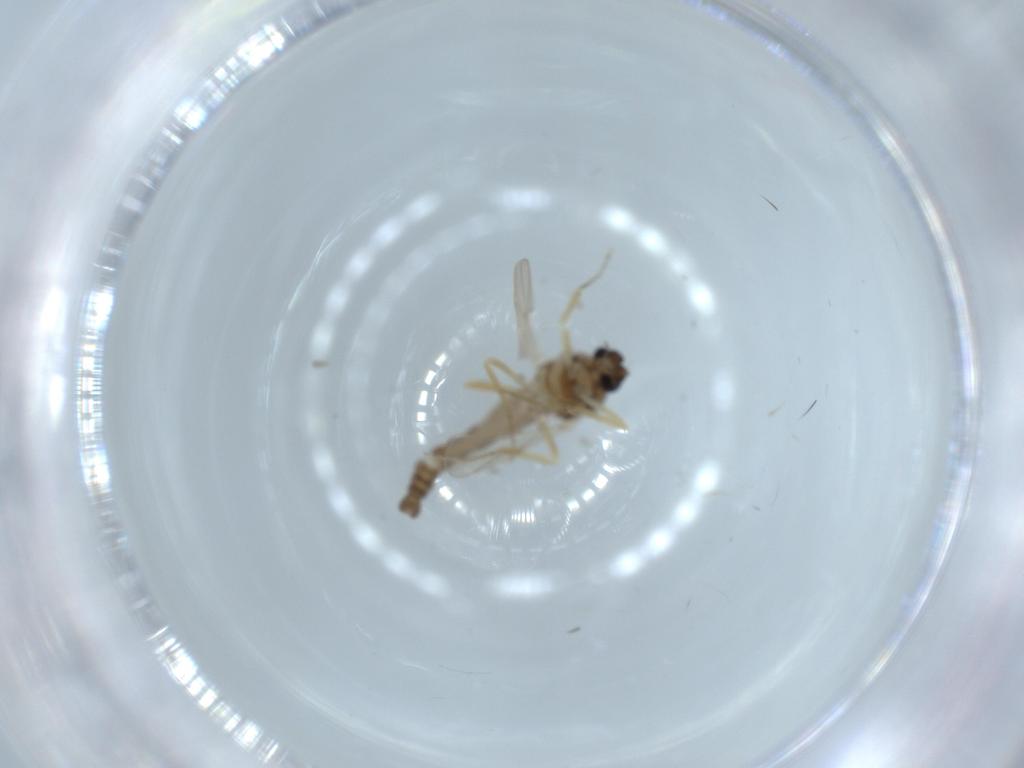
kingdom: Animalia
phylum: Arthropoda
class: Insecta
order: Diptera
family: Ceratopogonidae
